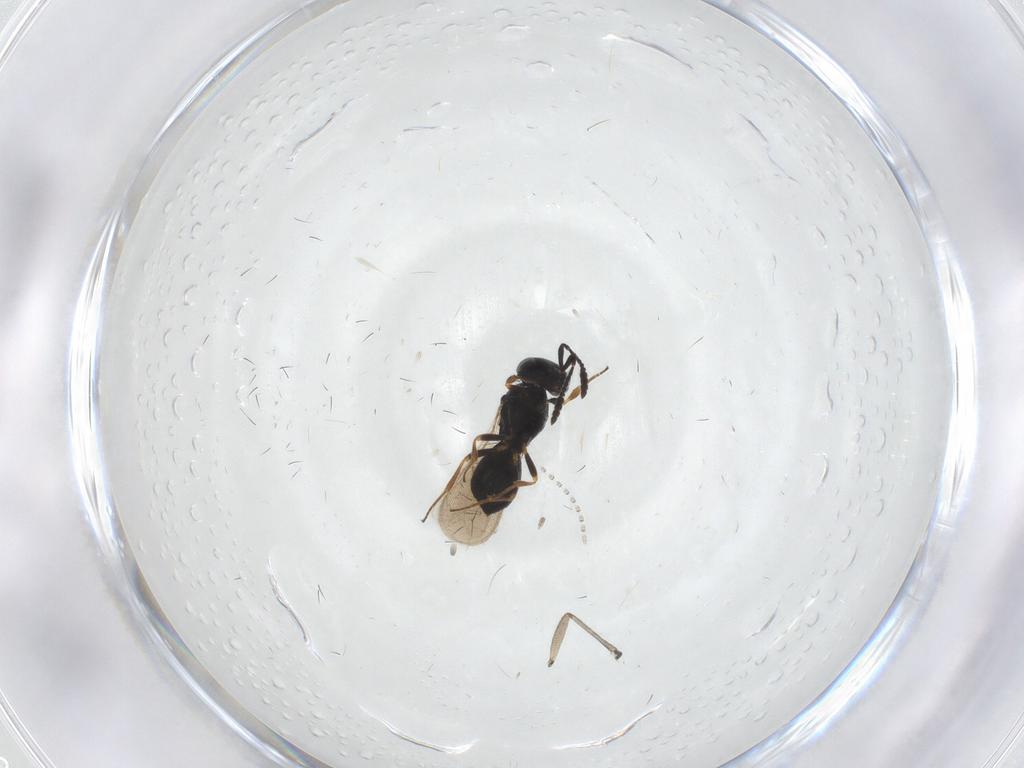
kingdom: Animalia
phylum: Arthropoda
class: Insecta
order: Hymenoptera
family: Scelionidae
